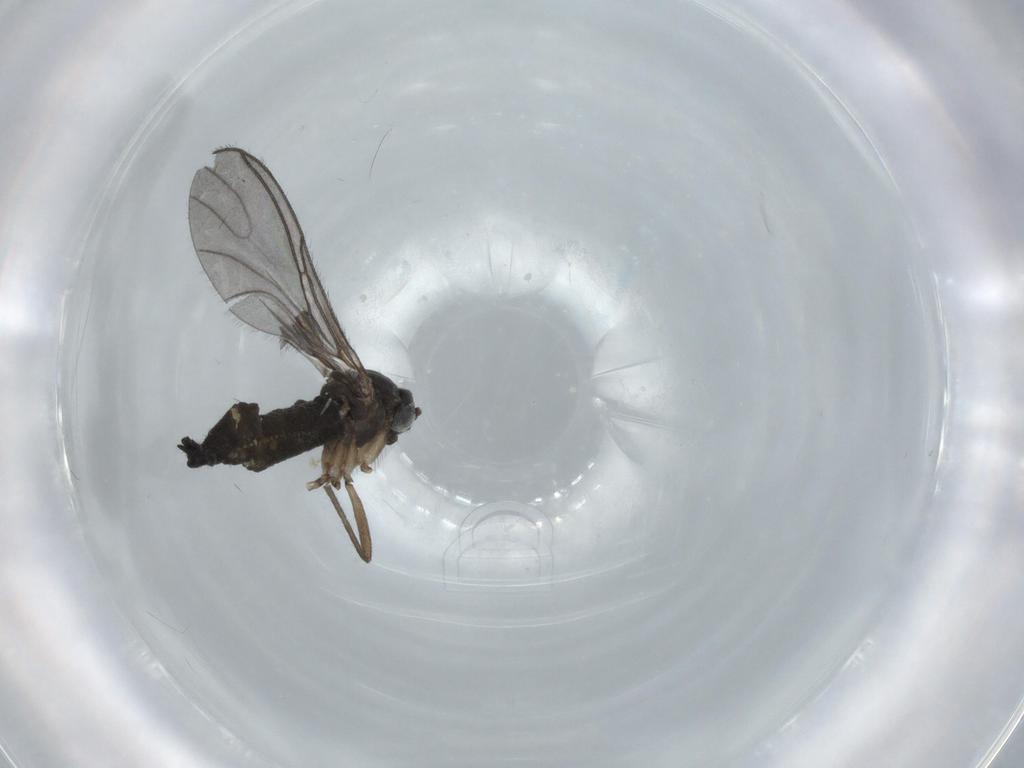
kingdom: Animalia
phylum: Arthropoda
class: Insecta
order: Diptera
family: Sciaridae
